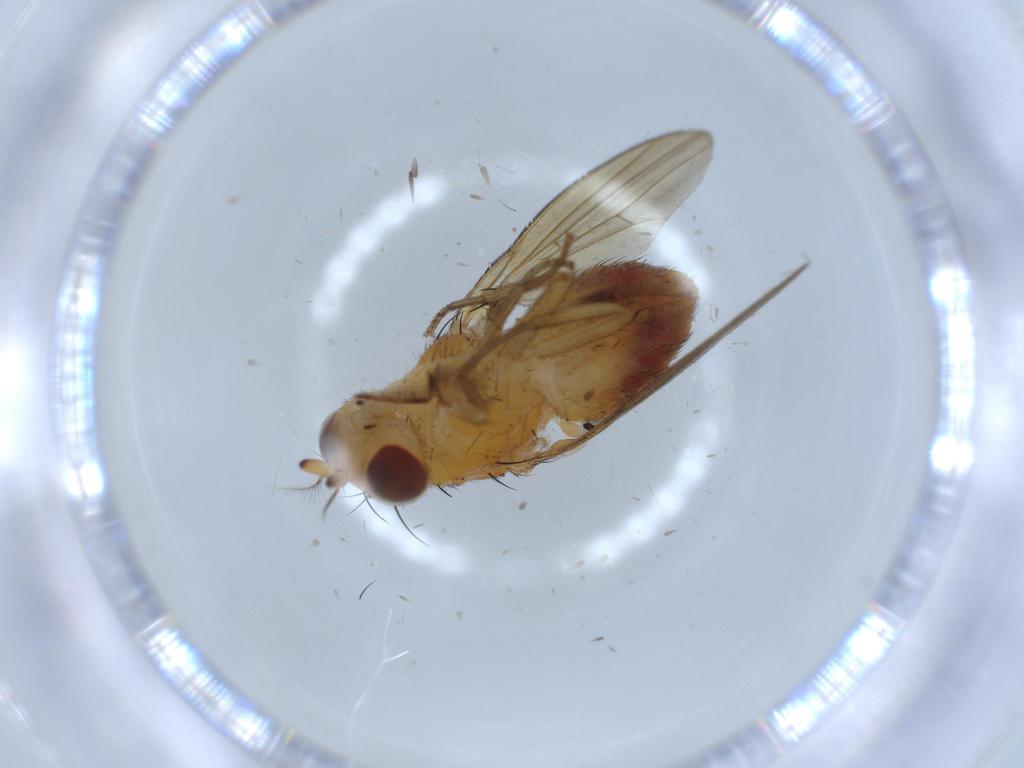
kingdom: Animalia
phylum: Arthropoda
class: Insecta
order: Diptera
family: Lauxaniidae
